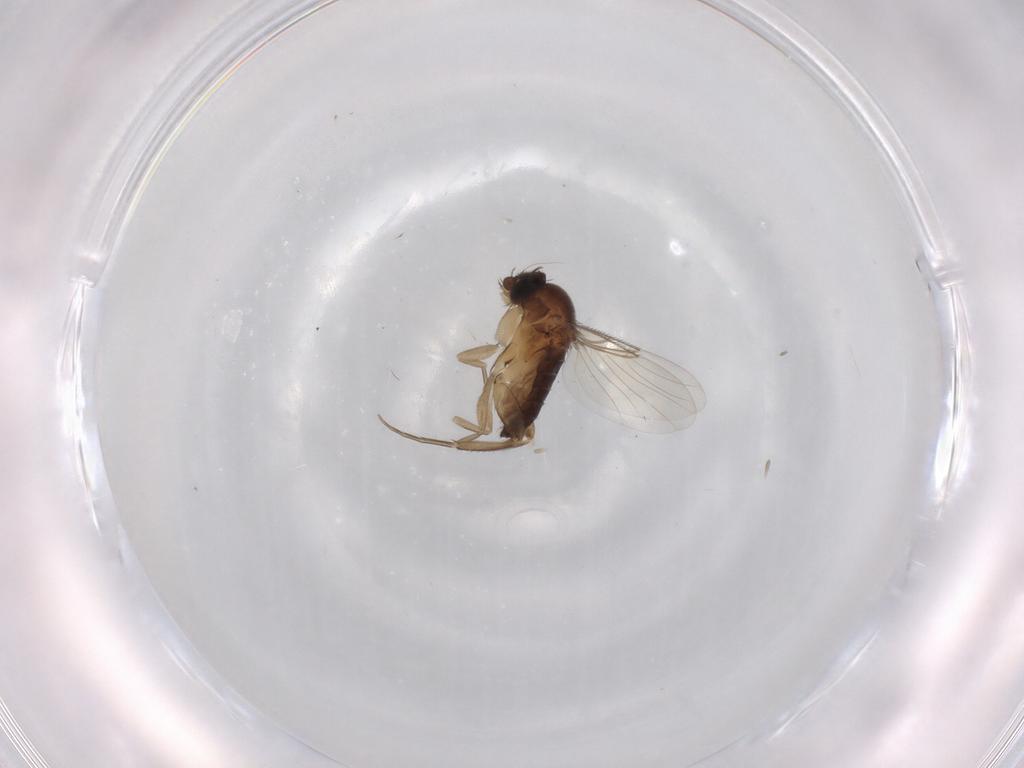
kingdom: Animalia
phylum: Arthropoda
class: Insecta
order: Diptera
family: Phoridae
